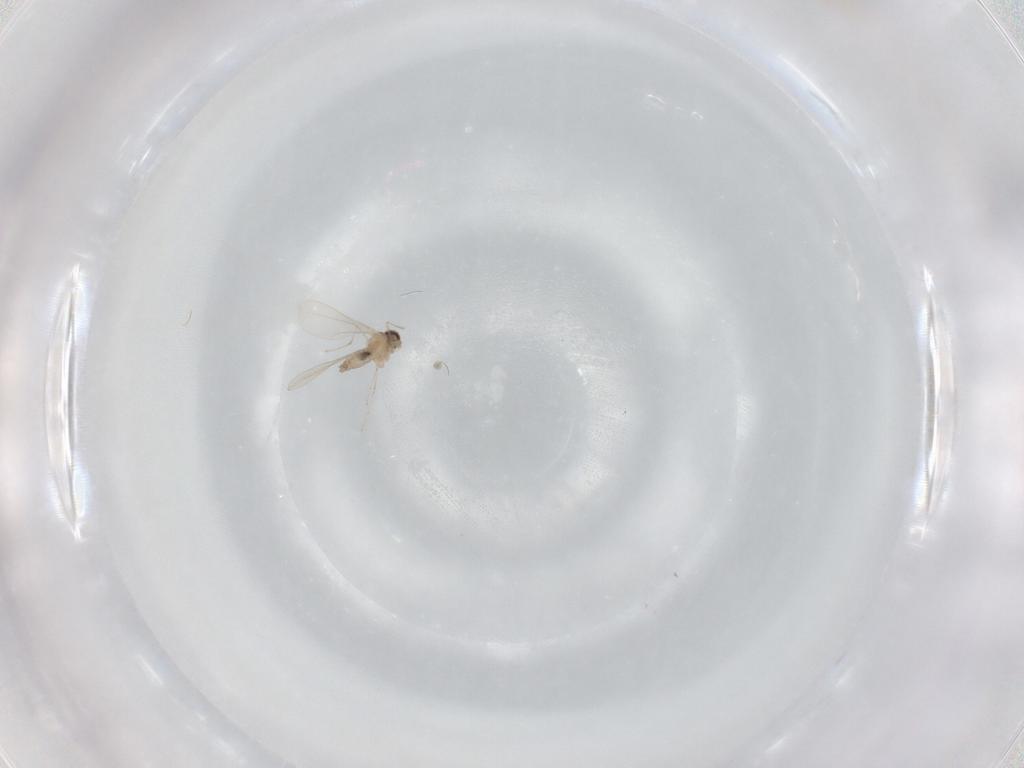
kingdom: Animalia
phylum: Arthropoda
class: Insecta
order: Diptera
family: Cecidomyiidae
